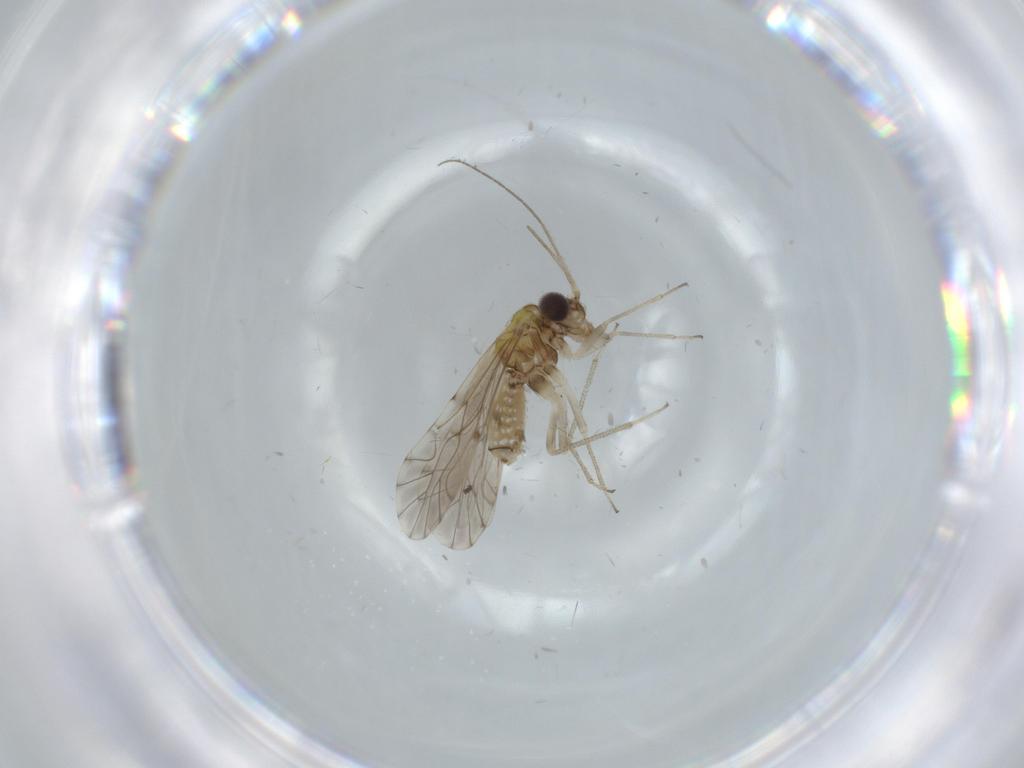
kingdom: Animalia
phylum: Arthropoda
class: Insecta
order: Psocodea
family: Lachesillidae
